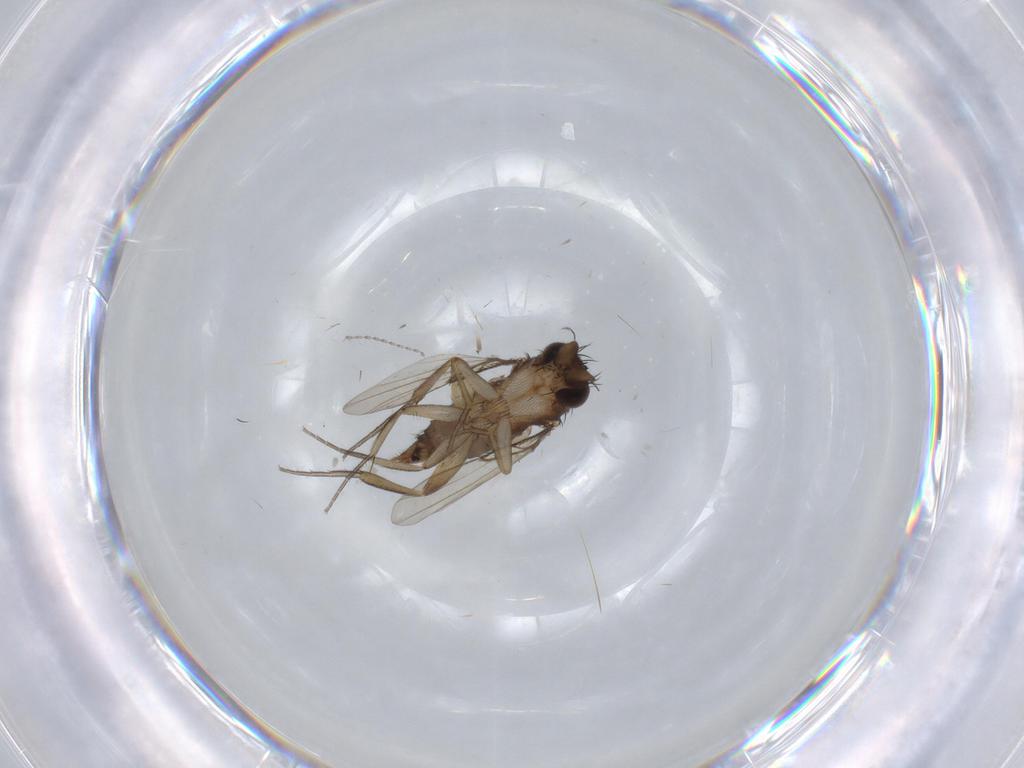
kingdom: Animalia
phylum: Arthropoda
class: Insecta
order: Diptera
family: Phoridae
